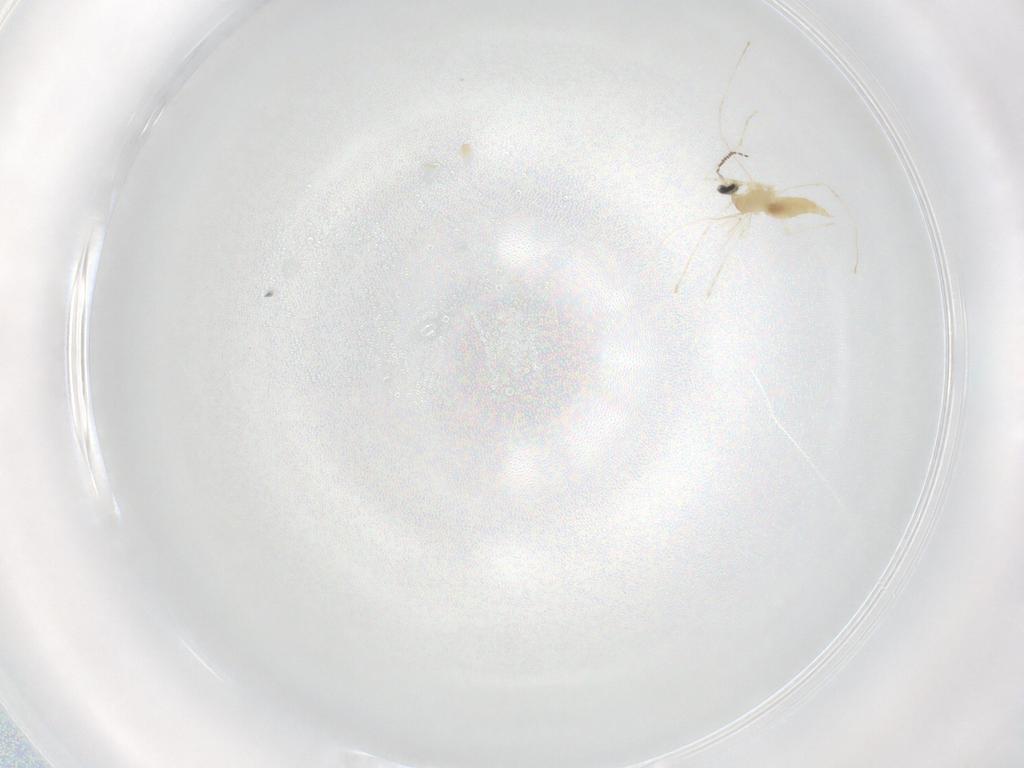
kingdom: Animalia
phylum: Arthropoda
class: Insecta
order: Diptera
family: Cecidomyiidae
